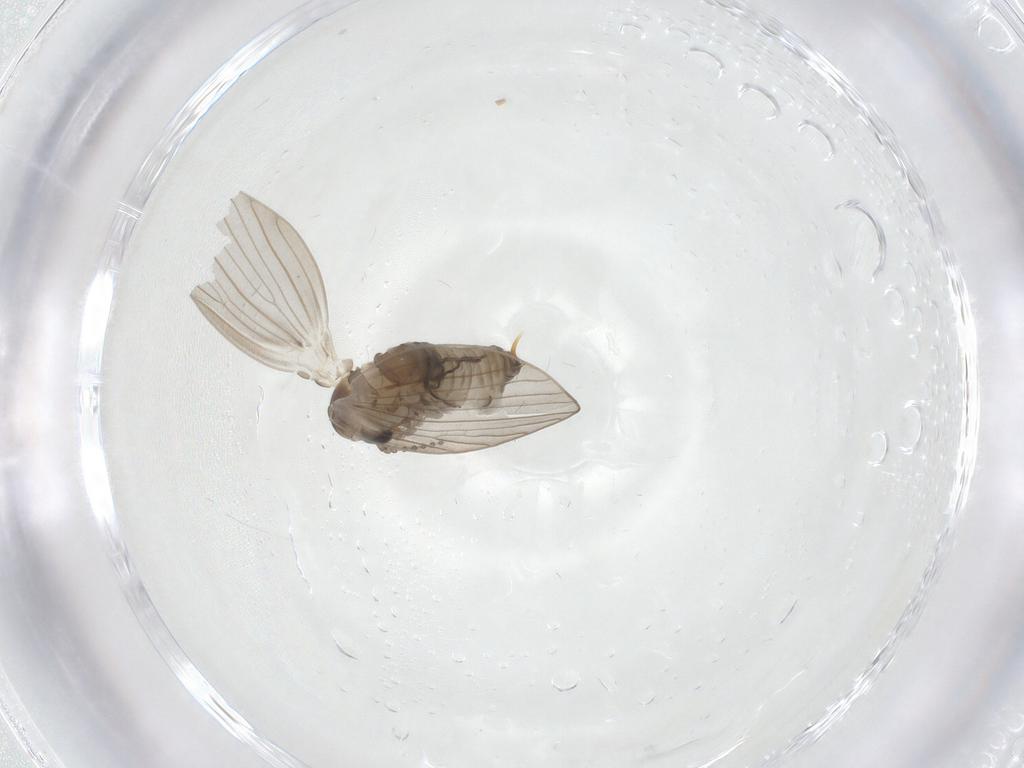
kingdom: Animalia
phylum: Arthropoda
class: Insecta
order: Diptera
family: Psychodidae
